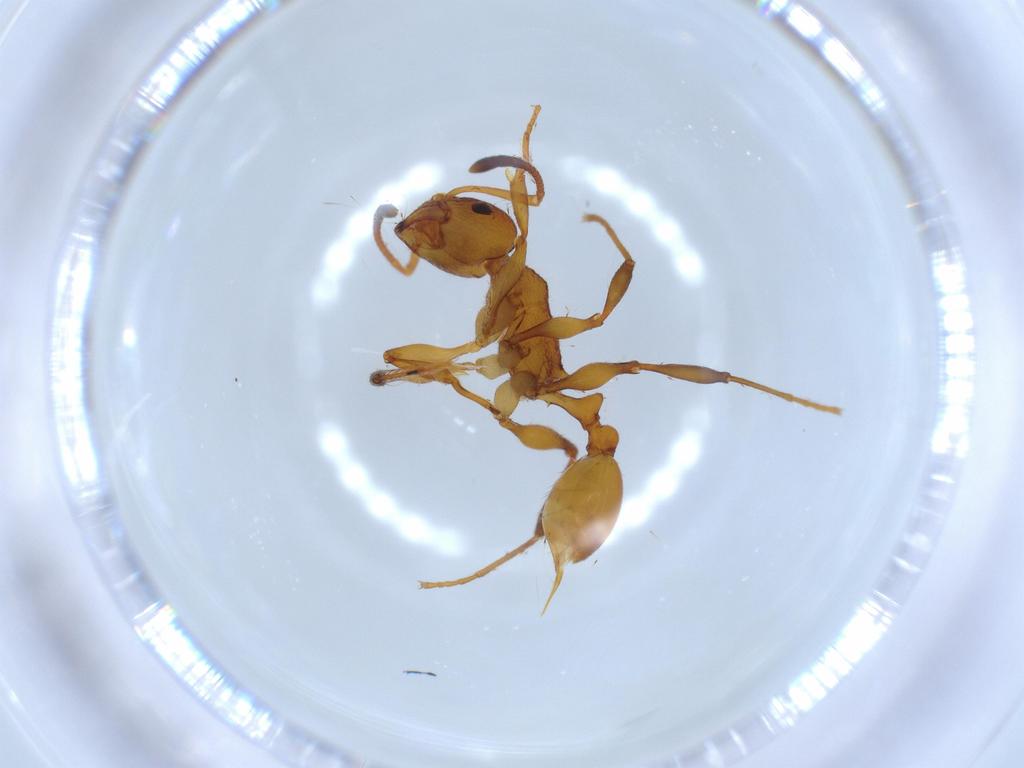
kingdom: Animalia
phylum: Arthropoda
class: Insecta
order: Hymenoptera
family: Formicidae
